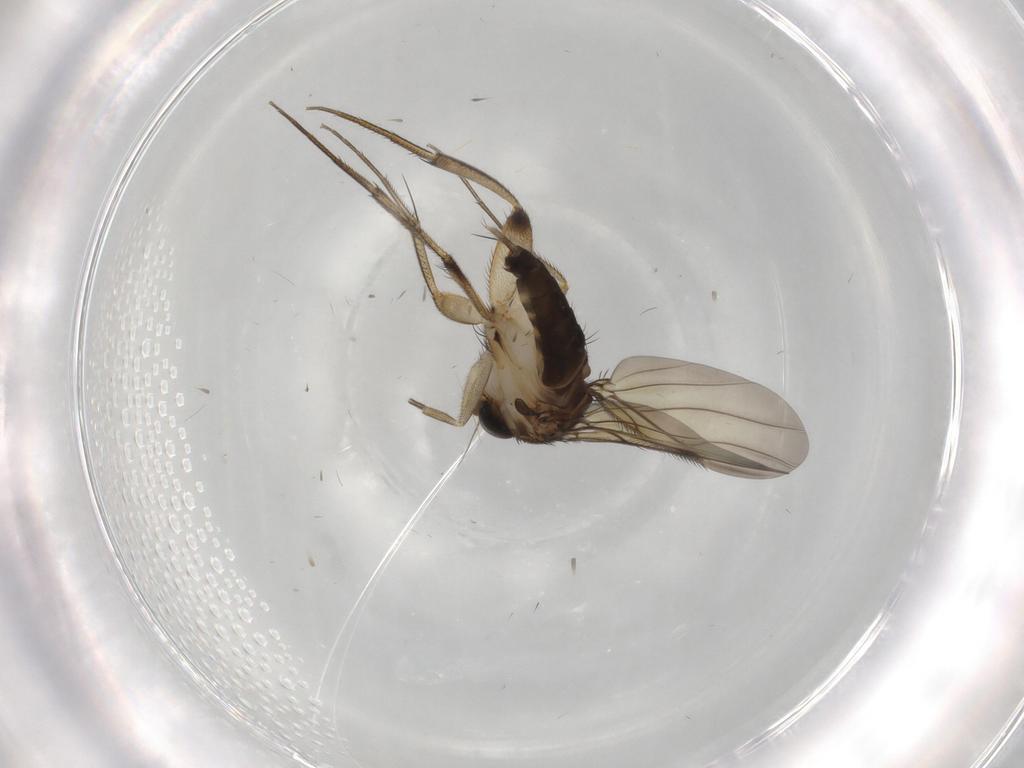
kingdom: Animalia
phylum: Arthropoda
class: Insecta
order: Diptera
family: Phoridae
